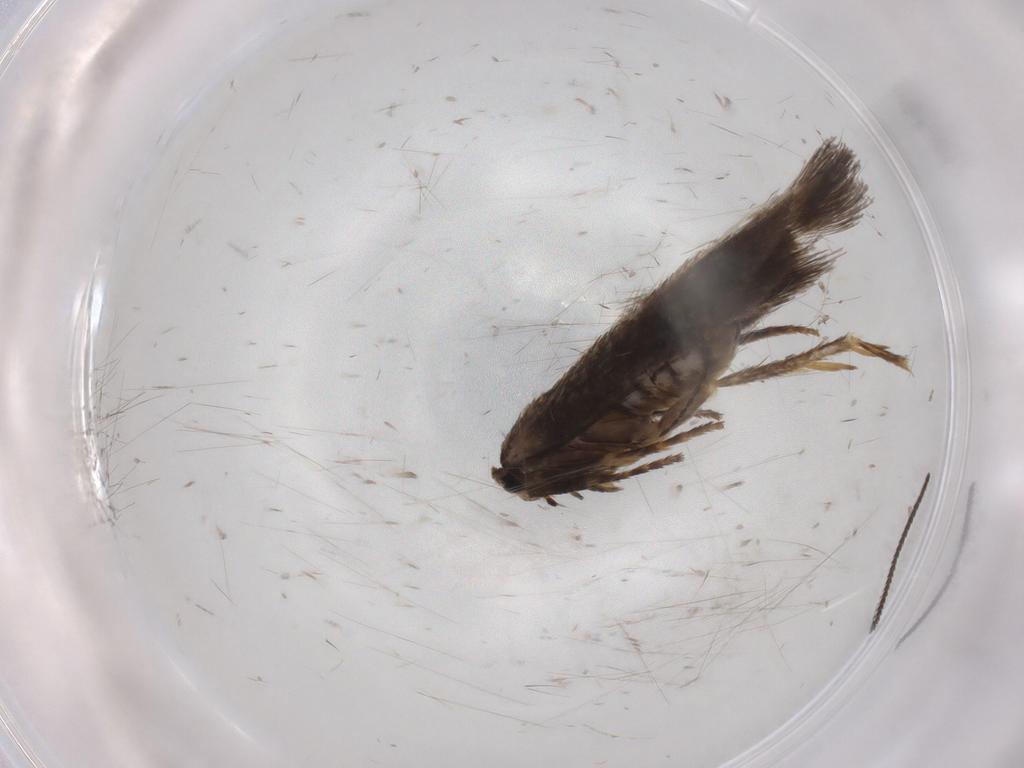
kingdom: Animalia
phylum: Arthropoda
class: Insecta
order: Lepidoptera
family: Nepticulidae
